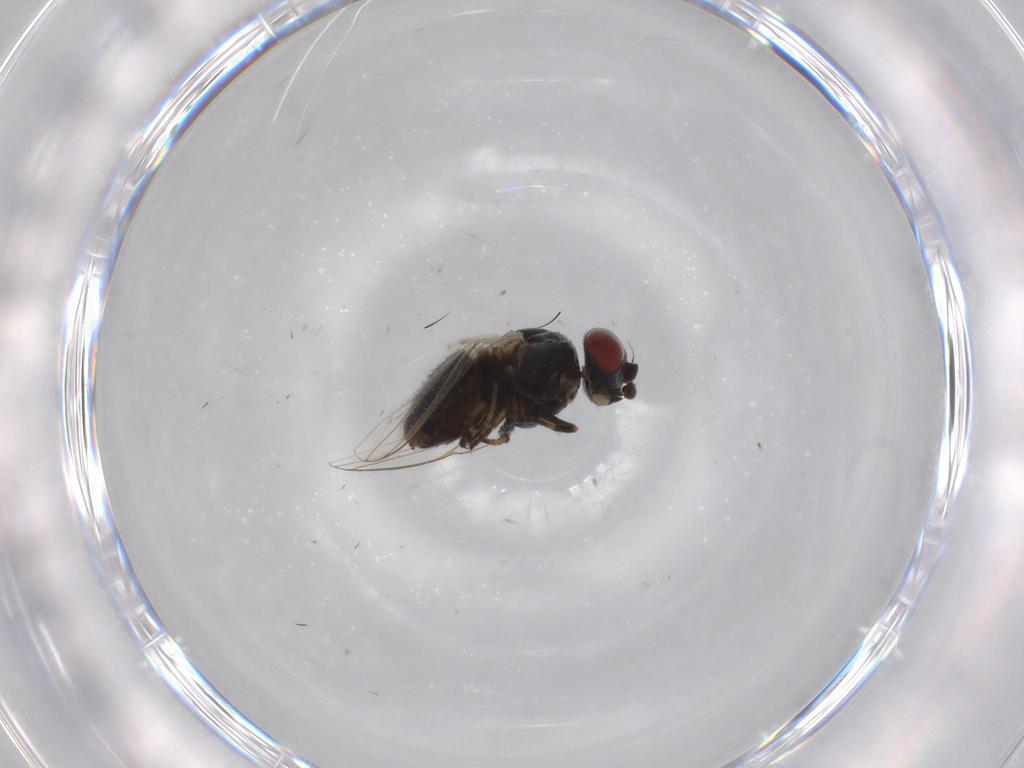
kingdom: Animalia
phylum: Arthropoda
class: Insecta
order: Diptera
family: Chamaemyiidae
